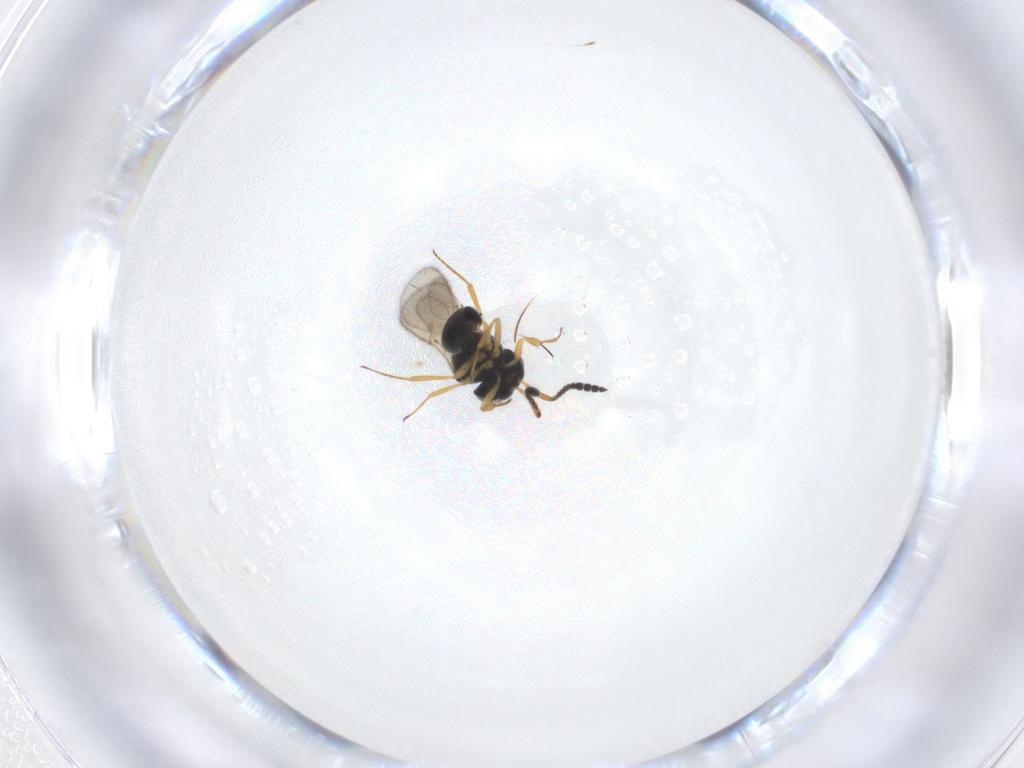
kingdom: Animalia
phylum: Arthropoda
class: Insecta
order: Hymenoptera
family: Scelionidae
